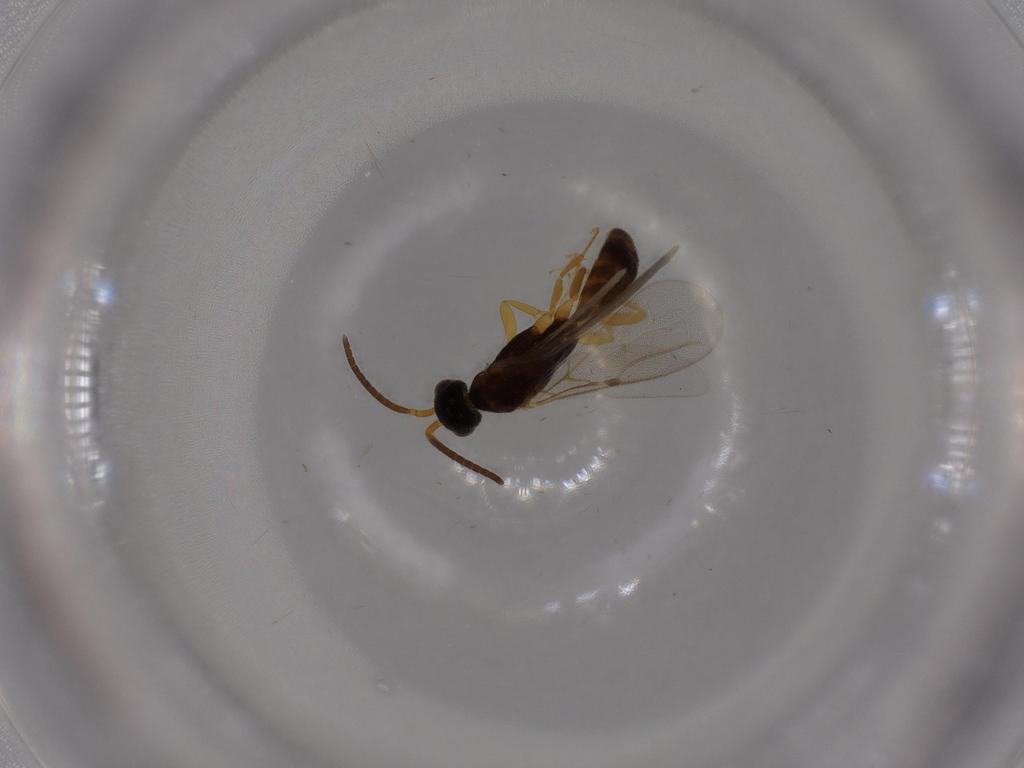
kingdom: Animalia
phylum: Arthropoda
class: Insecta
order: Hymenoptera
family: Bethylidae
